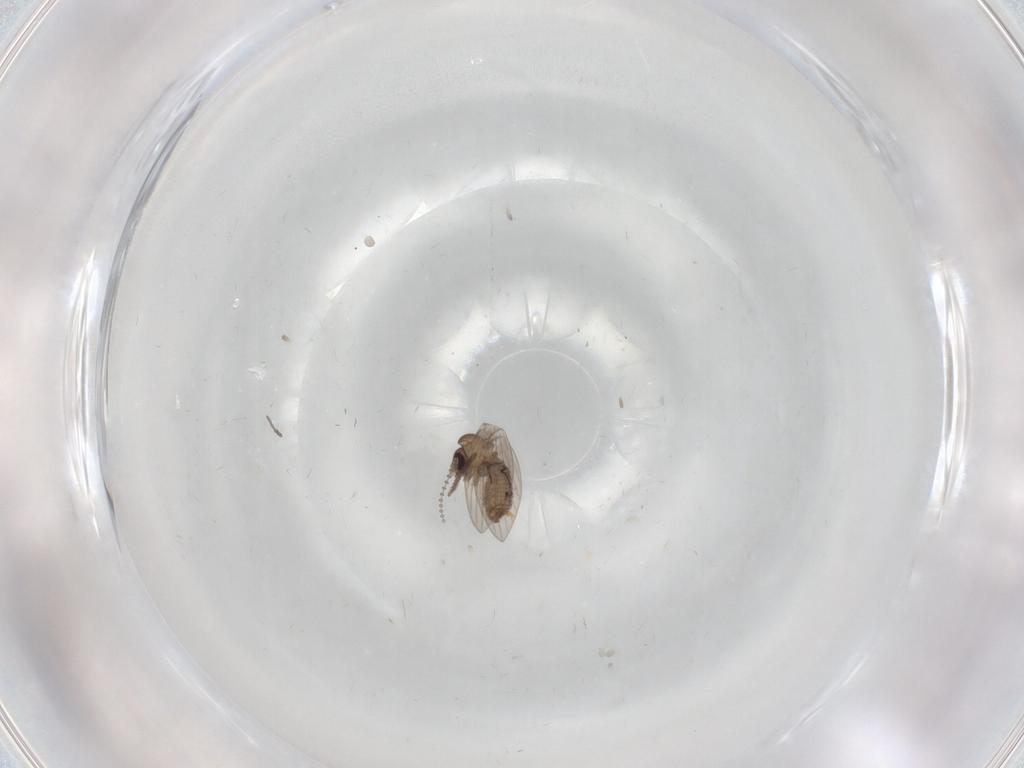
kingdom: Animalia
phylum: Arthropoda
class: Insecta
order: Diptera
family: Psychodidae
